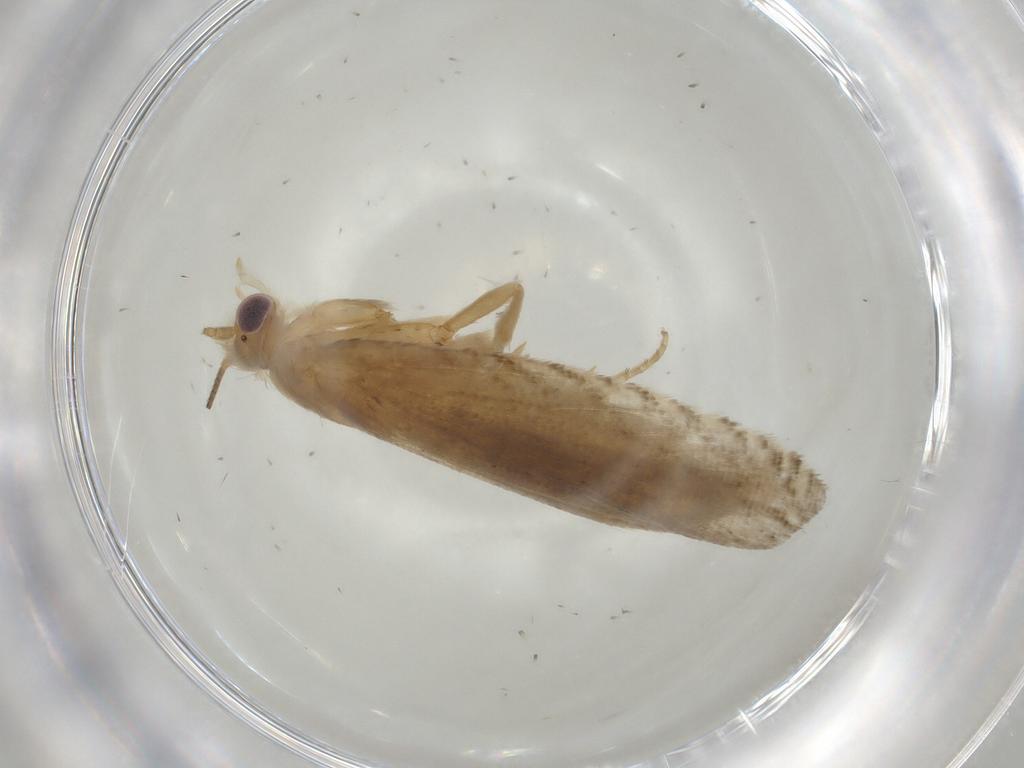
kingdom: Animalia
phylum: Arthropoda
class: Insecta
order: Lepidoptera
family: Tortricidae
